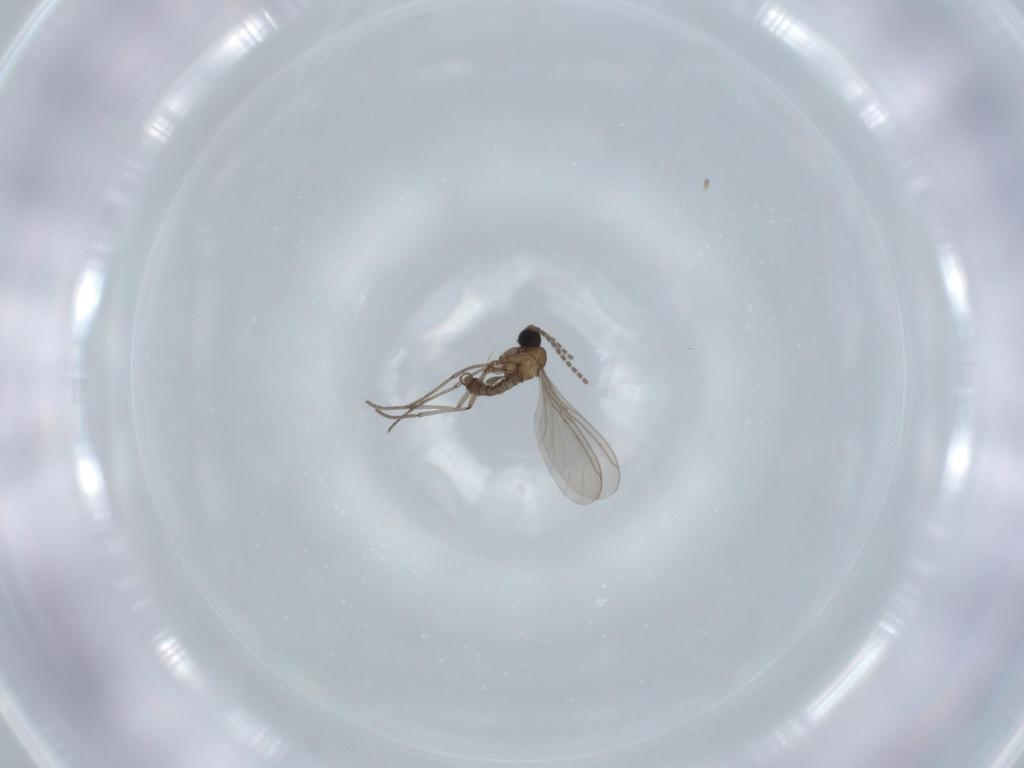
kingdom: Animalia
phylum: Arthropoda
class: Insecta
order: Diptera
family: Sciaridae
